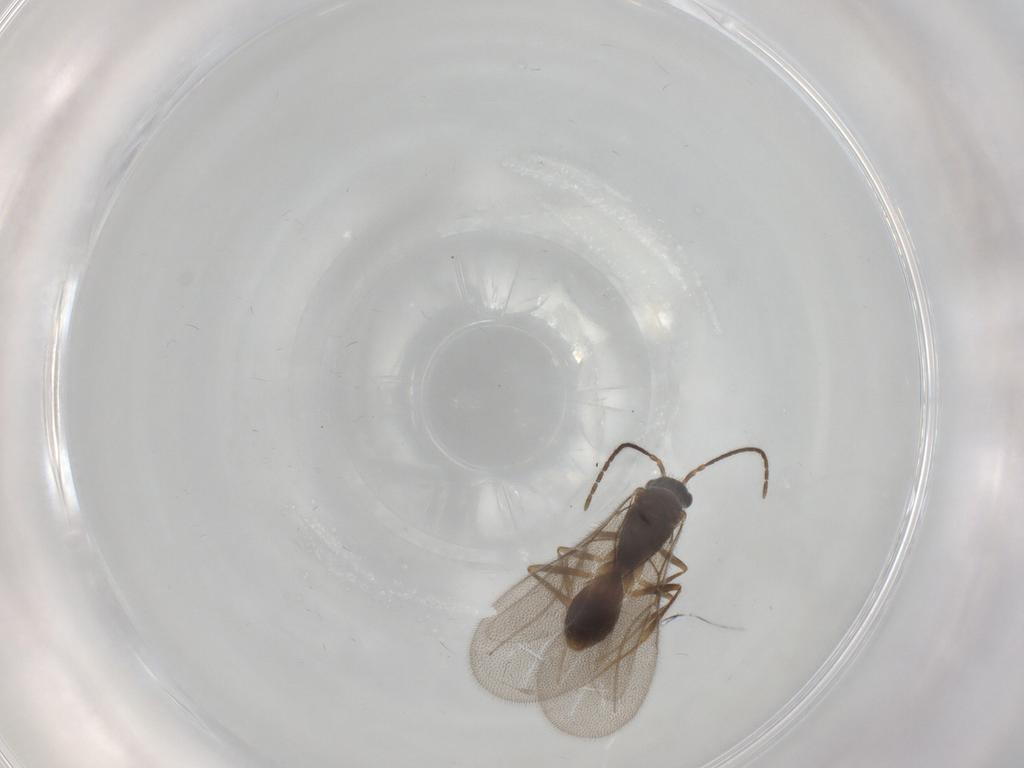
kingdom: Animalia
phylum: Arthropoda
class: Insecta
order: Hymenoptera
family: Bethylidae
